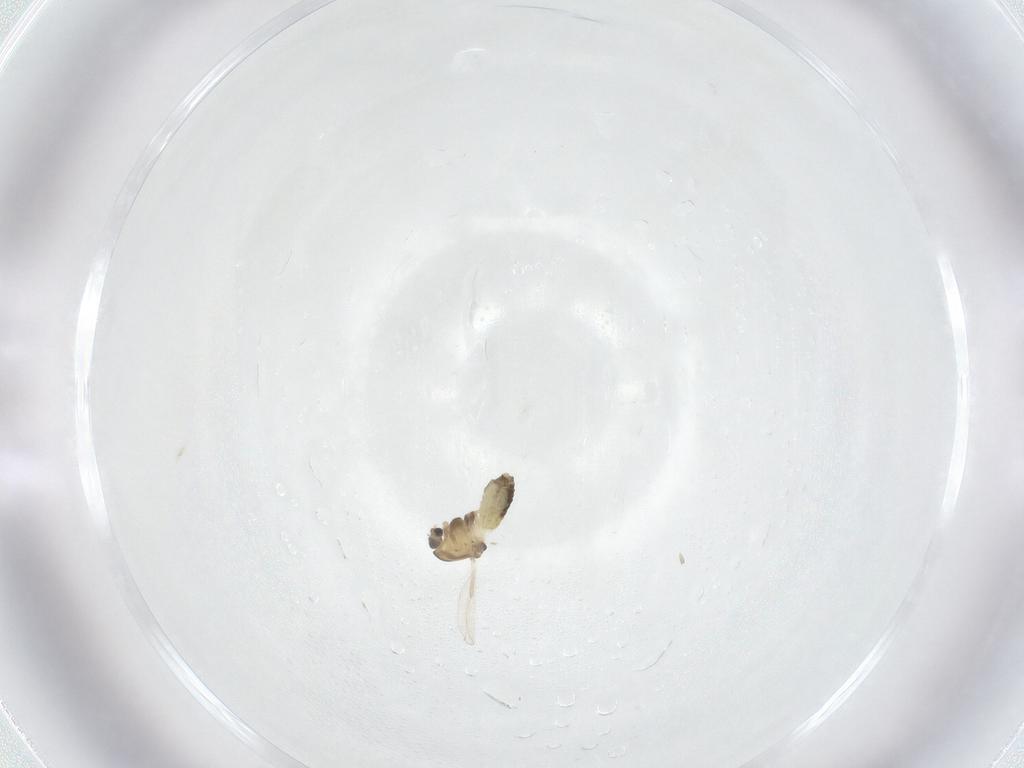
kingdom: Animalia
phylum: Arthropoda
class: Insecta
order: Diptera
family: Chironomidae
